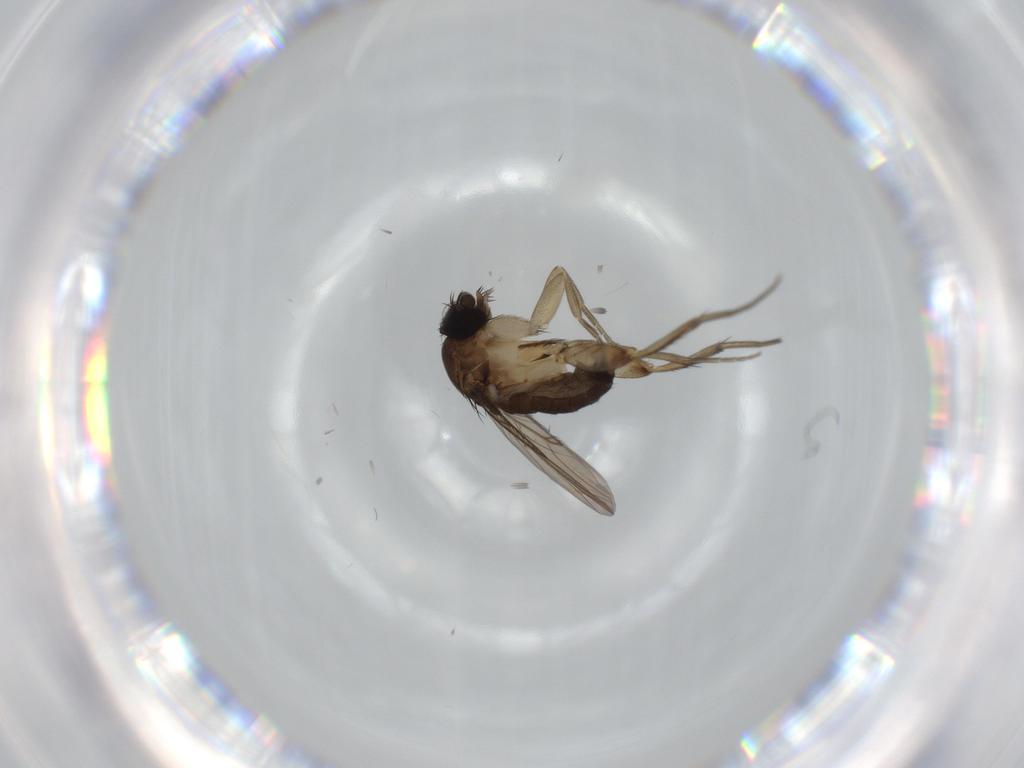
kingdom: Animalia
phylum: Arthropoda
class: Insecta
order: Diptera
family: Phoridae
